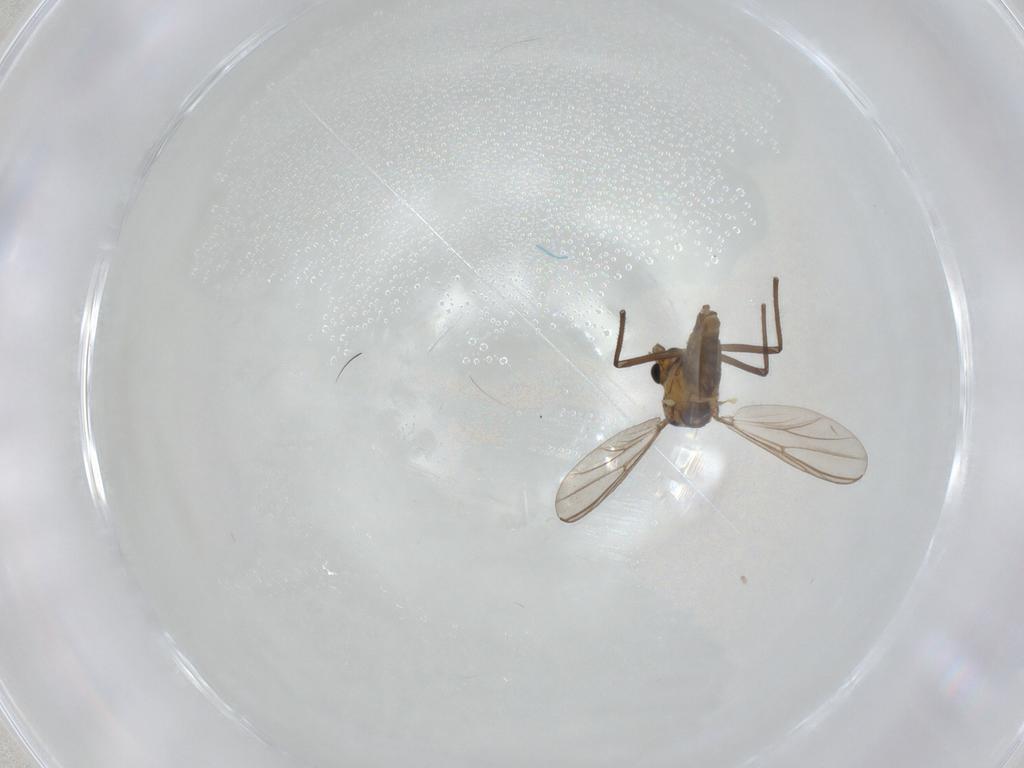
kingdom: Animalia
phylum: Arthropoda
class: Insecta
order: Diptera
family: Chironomidae
